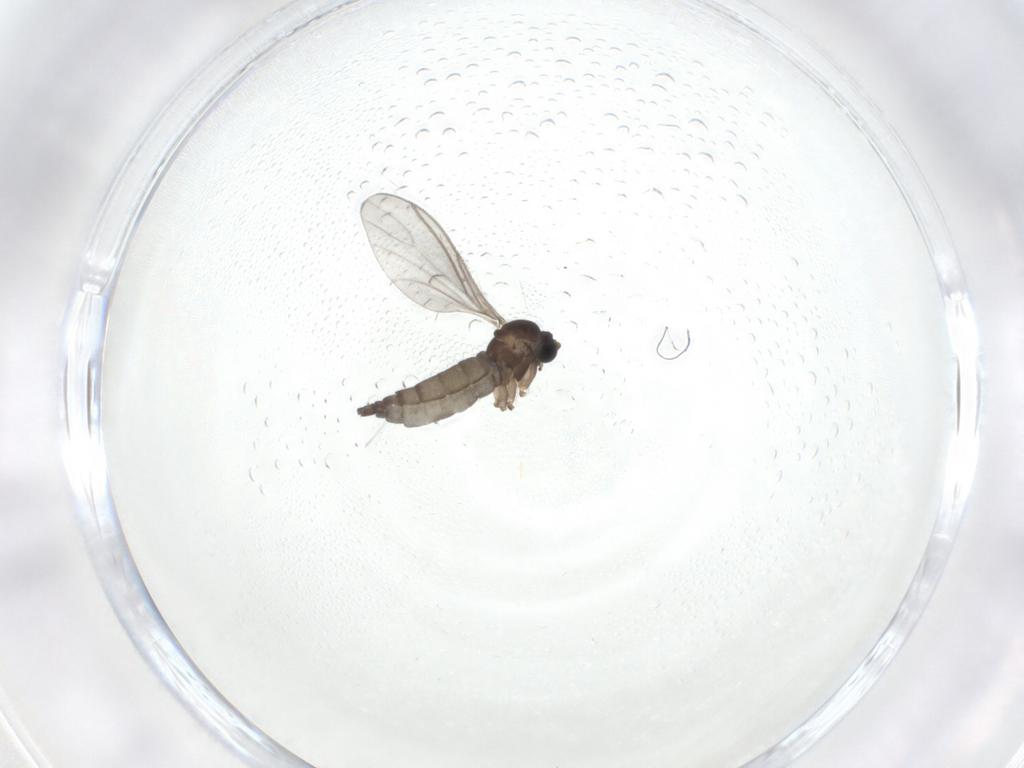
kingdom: Animalia
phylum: Arthropoda
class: Insecta
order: Diptera
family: Sciaridae
